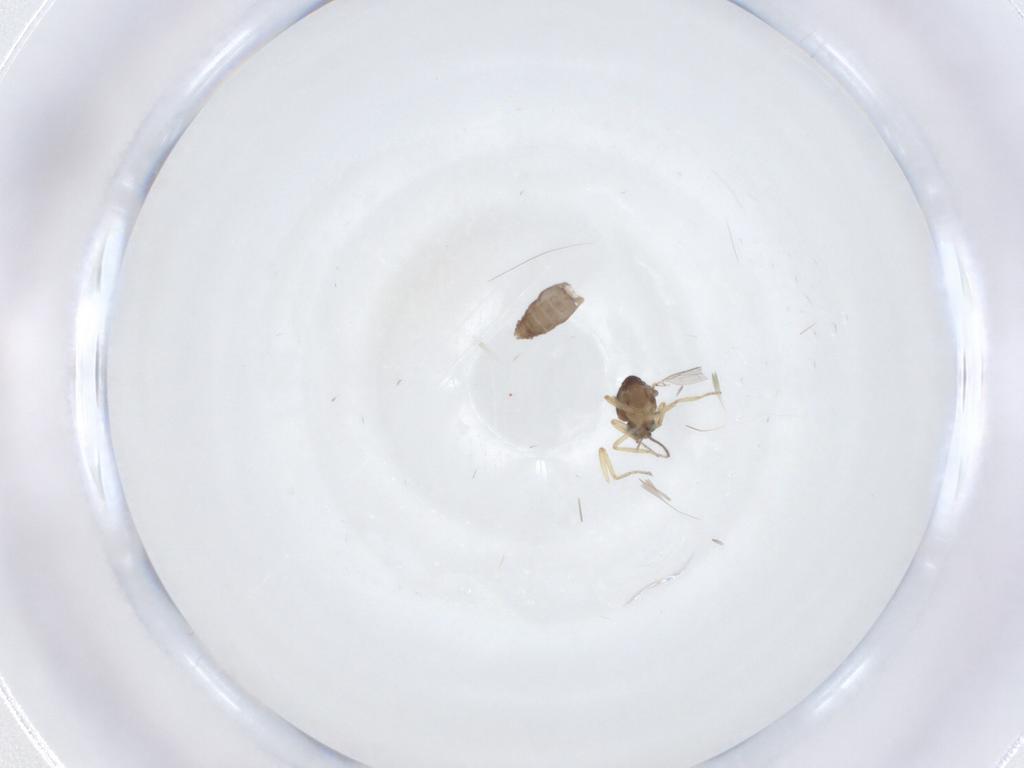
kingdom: Animalia
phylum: Arthropoda
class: Insecta
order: Diptera
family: Ceratopogonidae
